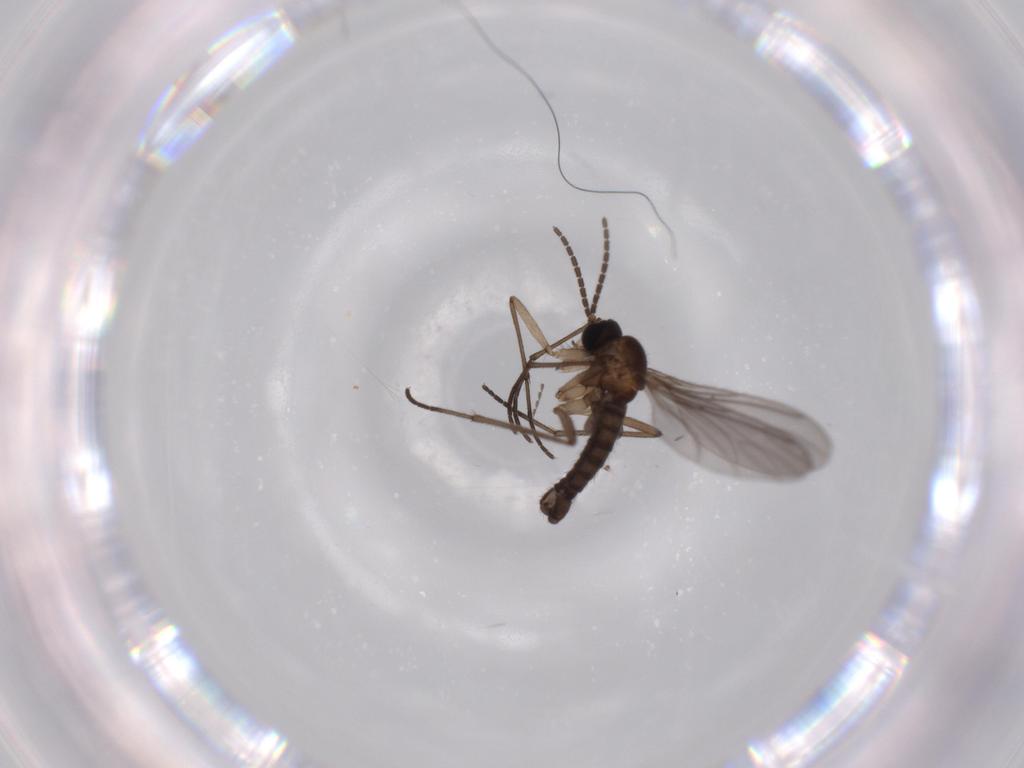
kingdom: Animalia
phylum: Arthropoda
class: Insecta
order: Diptera
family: Sciaridae
